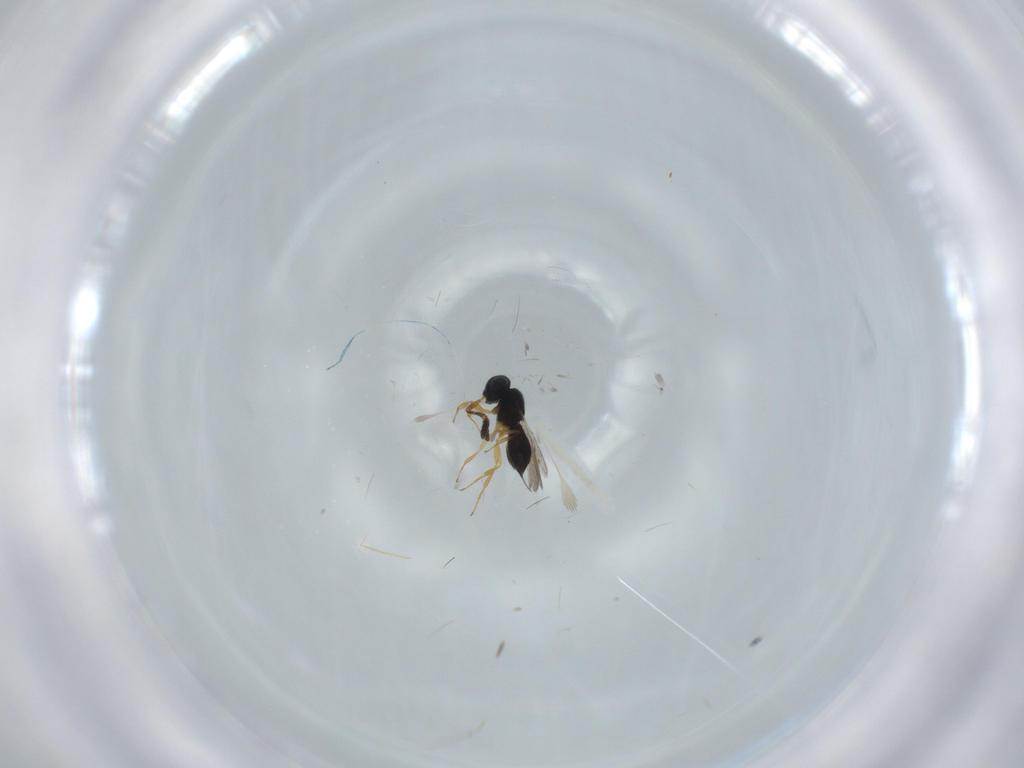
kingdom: Animalia
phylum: Arthropoda
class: Insecta
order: Hymenoptera
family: Scelionidae
